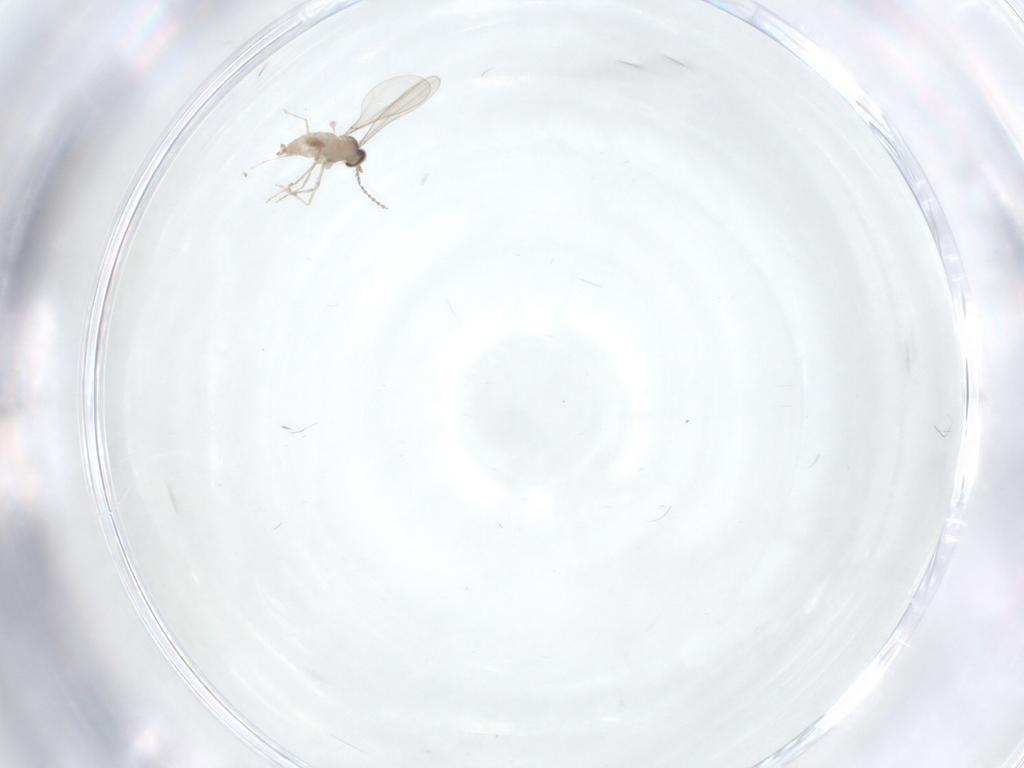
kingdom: Animalia
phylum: Arthropoda
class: Insecta
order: Diptera
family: Cecidomyiidae
